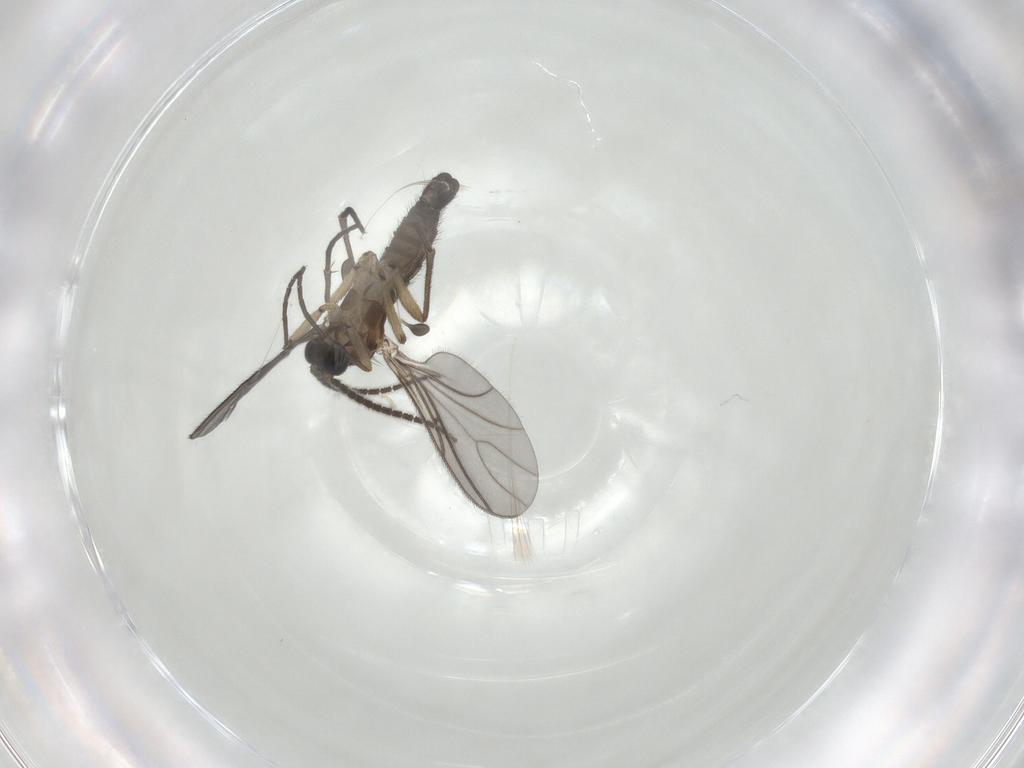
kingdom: Animalia
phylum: Arthropoda
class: Insecta
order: Diptera
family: Sciaridae
